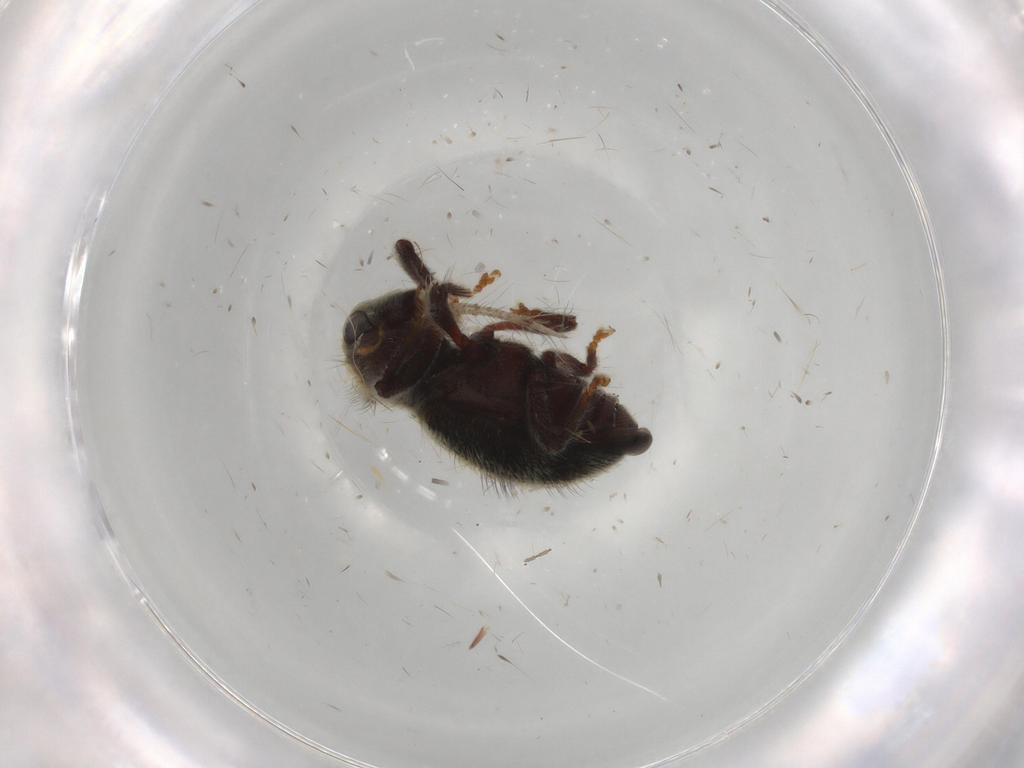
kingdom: Animalia
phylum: Arthropoda
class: Insecta
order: Coleoptera
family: Curculionidae
